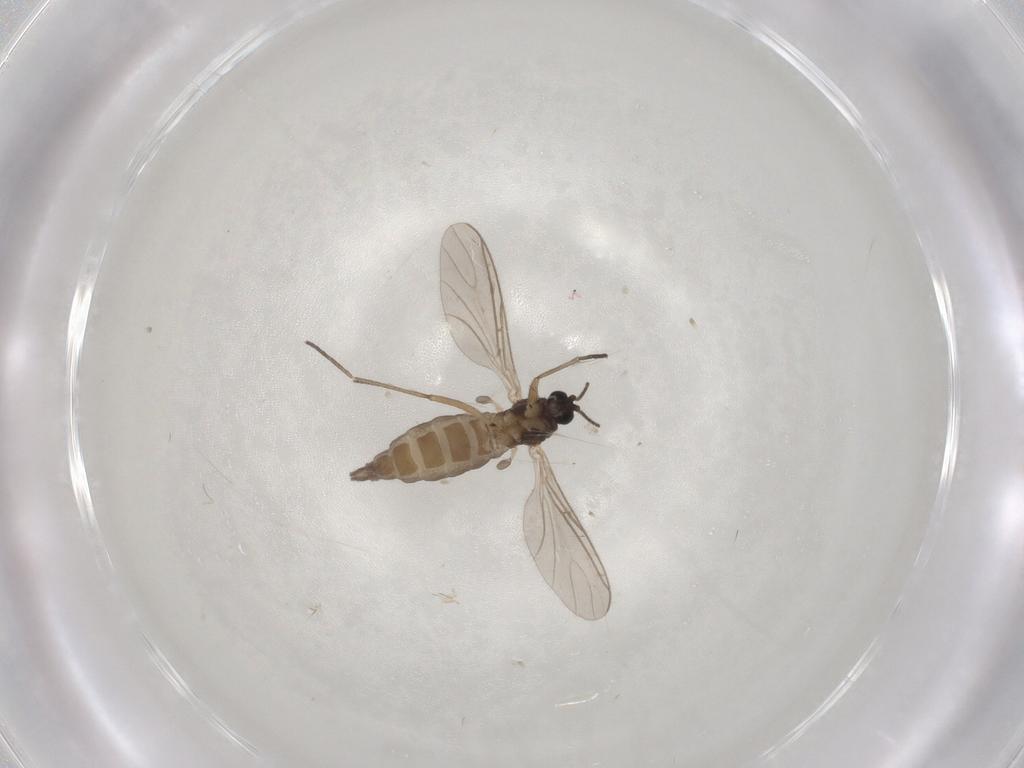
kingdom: Animalia
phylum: Arthropoda
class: Insecta
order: Diptera
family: Sciaridae
